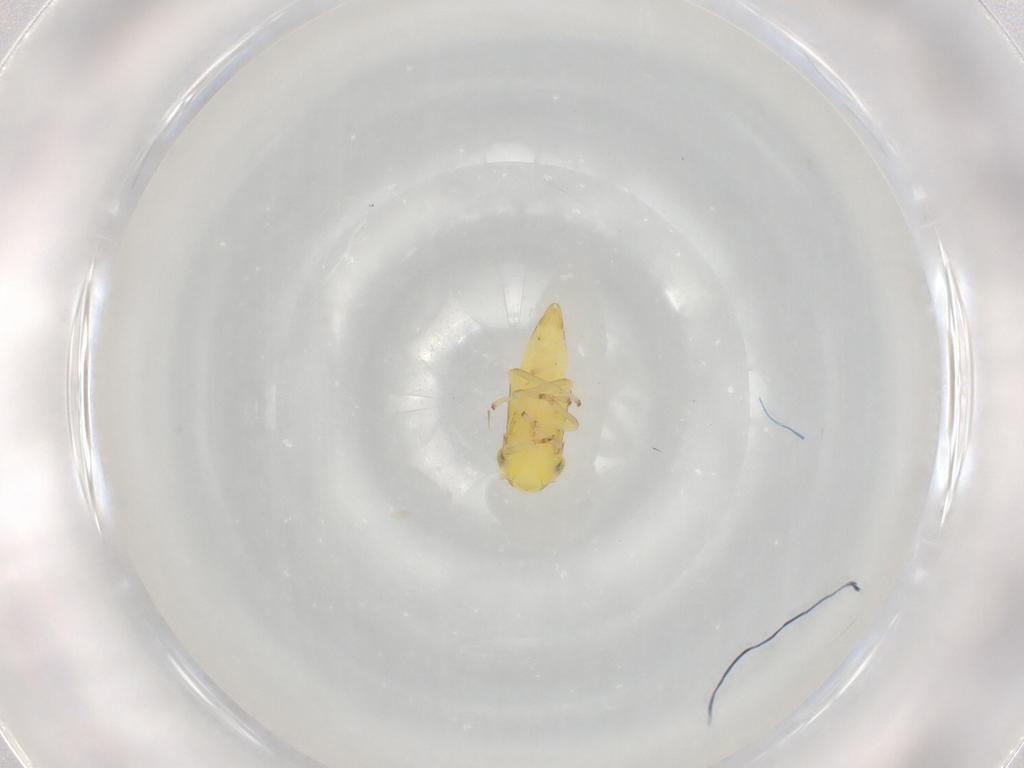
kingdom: Animalia
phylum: Arthropoda
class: Insecta
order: Hemiptera
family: Cicadellidae
